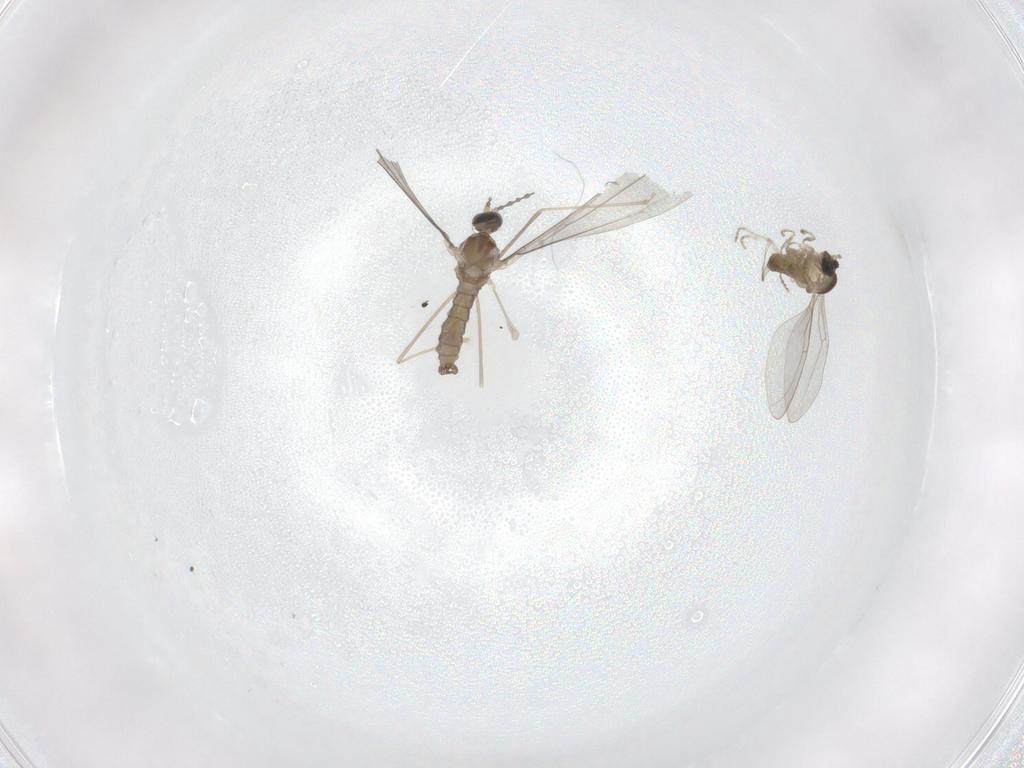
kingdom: Animalia
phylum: Arthropoda
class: Insecta
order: Diptera
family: Cecidomyiidae
